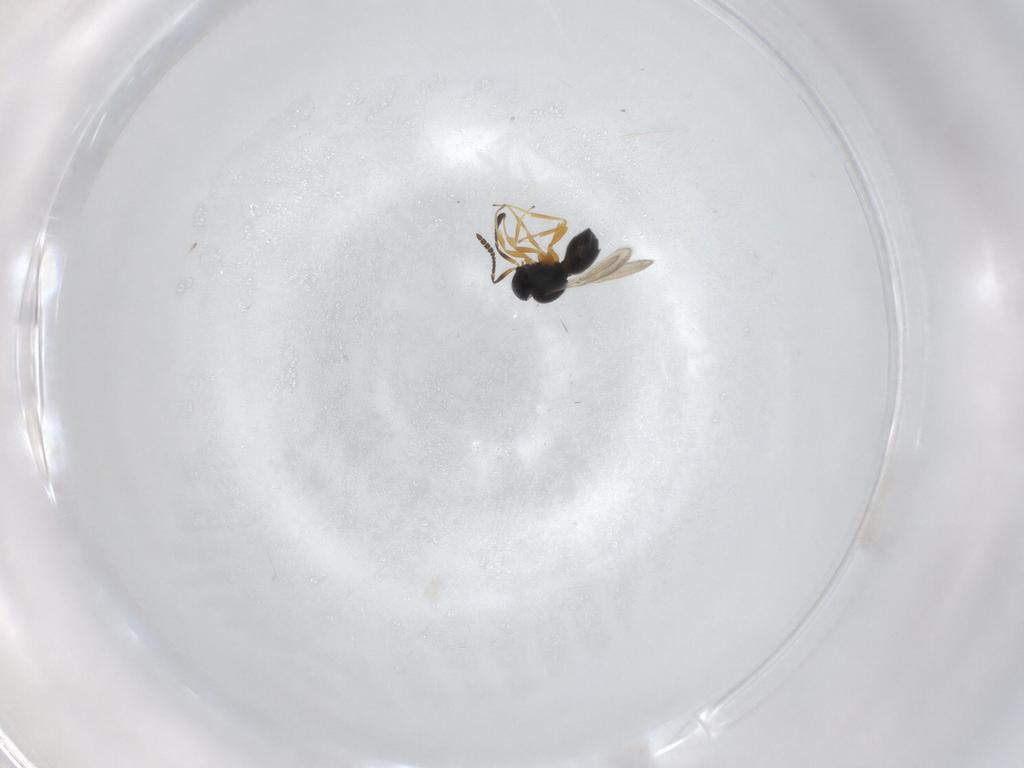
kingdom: Animalia
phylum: Arthropoda
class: Insecta
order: Hymenoptera
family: Scelionidae
